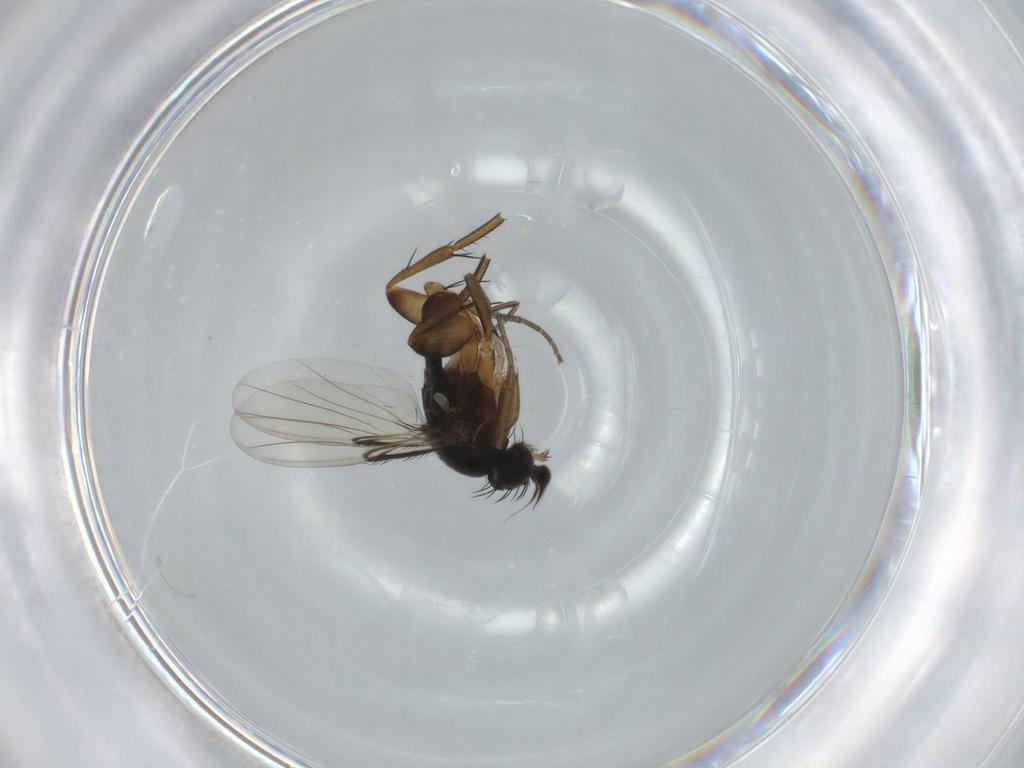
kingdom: Animalia
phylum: Arthropoda
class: Insecta
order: Diptera
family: Phoridae
